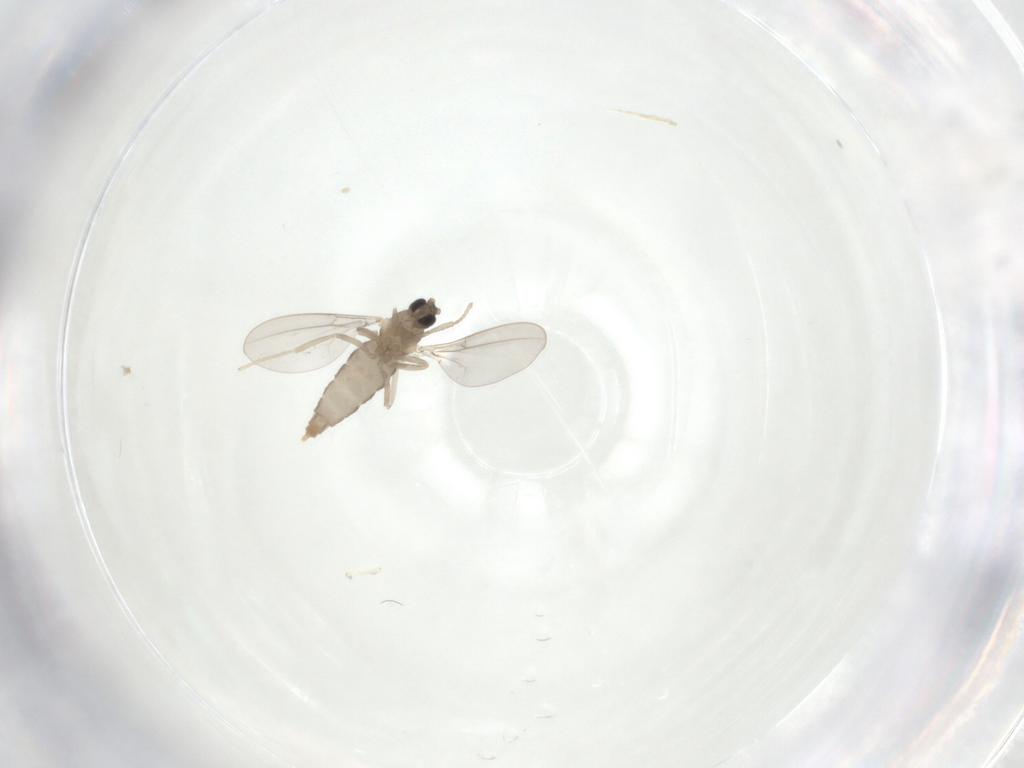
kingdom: Animalia
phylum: Arthropoda
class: Insecta
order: Diptera
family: Cecidomyiidae
